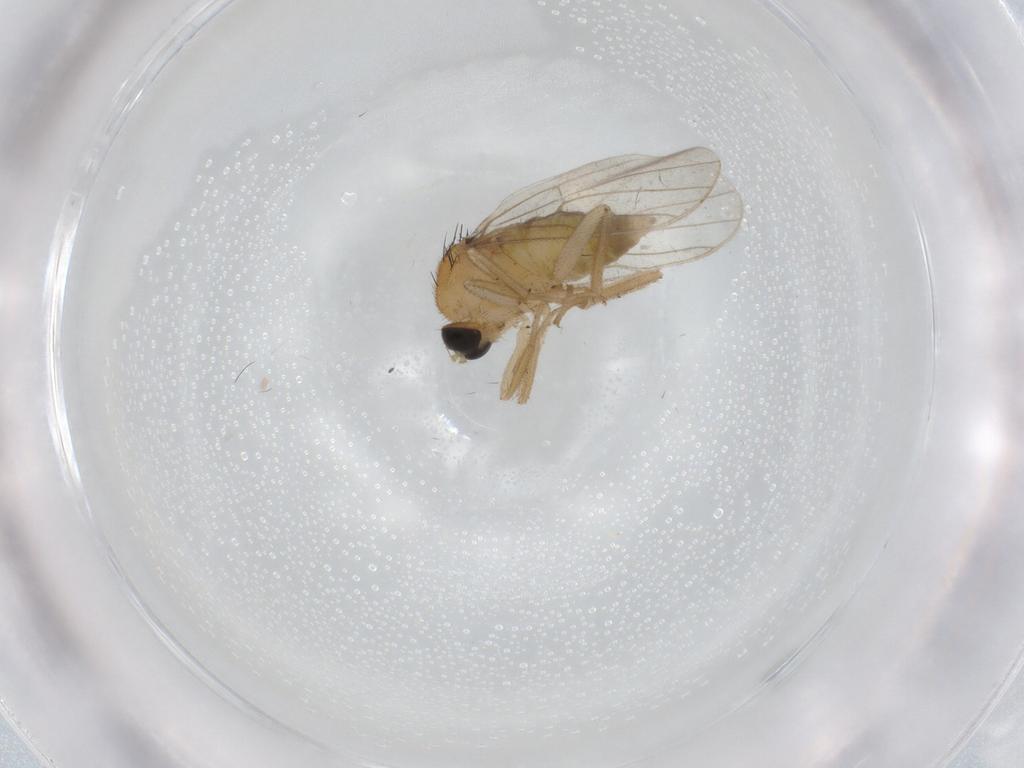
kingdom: Animalia
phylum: Arthropoda
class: Insecta
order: Diptera
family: Hybotidae
